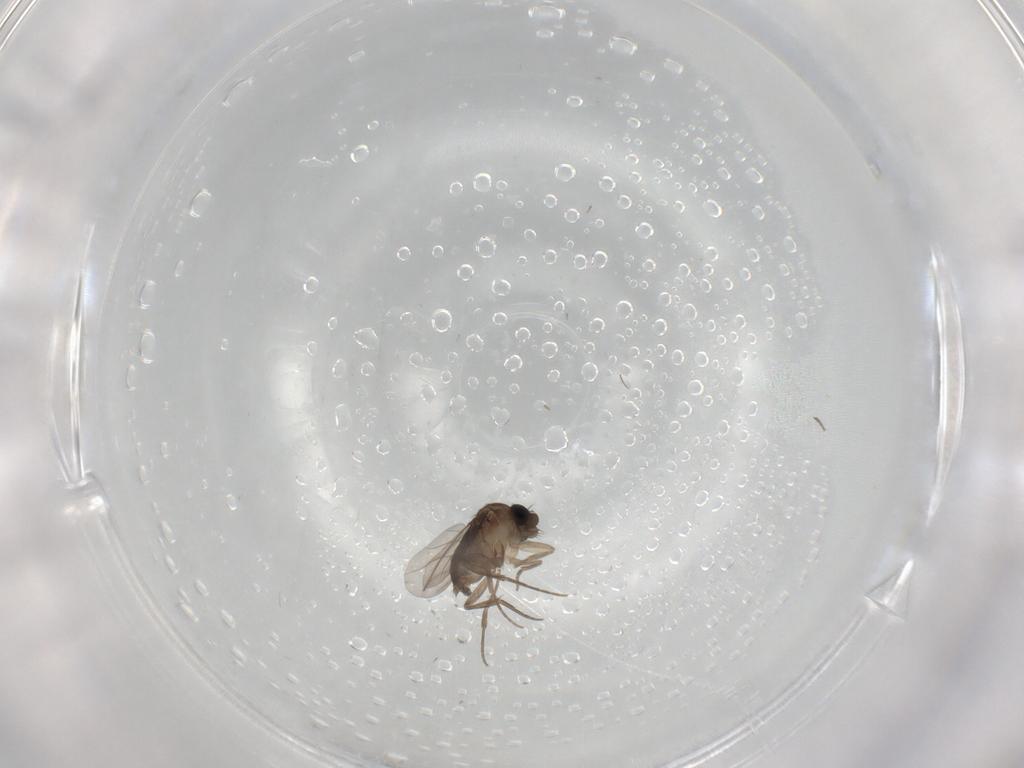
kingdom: Animalia
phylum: Arthropoda
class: Insecta
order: Diptera
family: Phoridae
